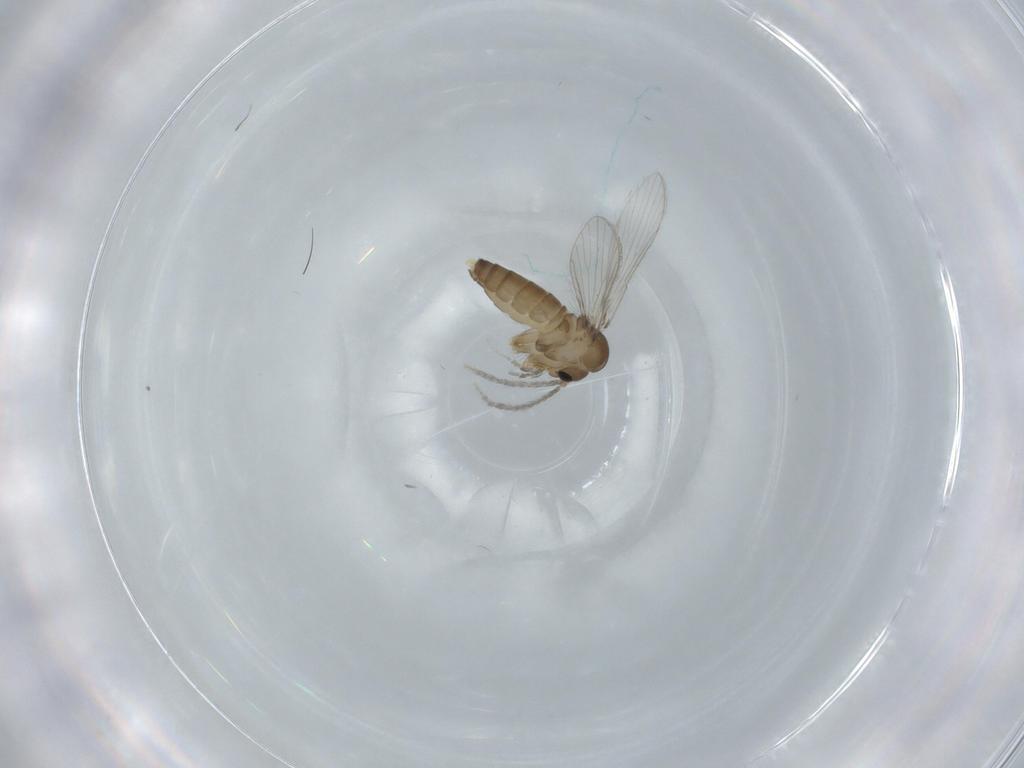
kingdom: Animalia
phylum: Arthropoda
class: Insecta
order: Diptera
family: Psychodidae
